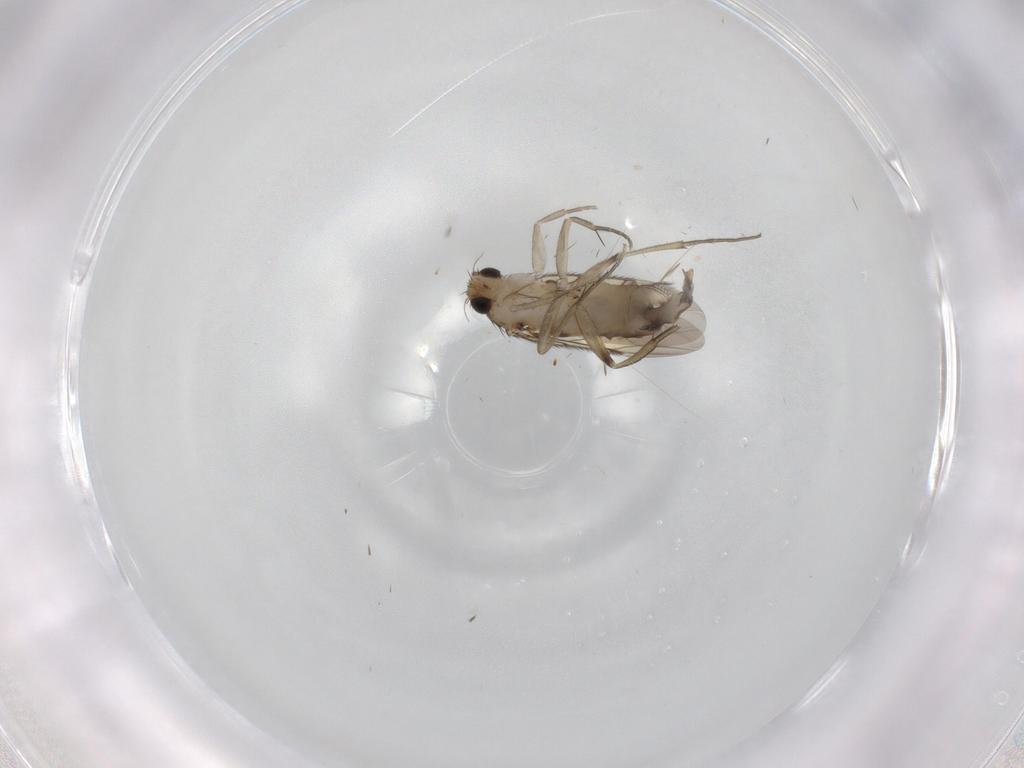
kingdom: Animalia
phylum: Arthropoda
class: Insecta
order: Diptera
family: Phoridae
